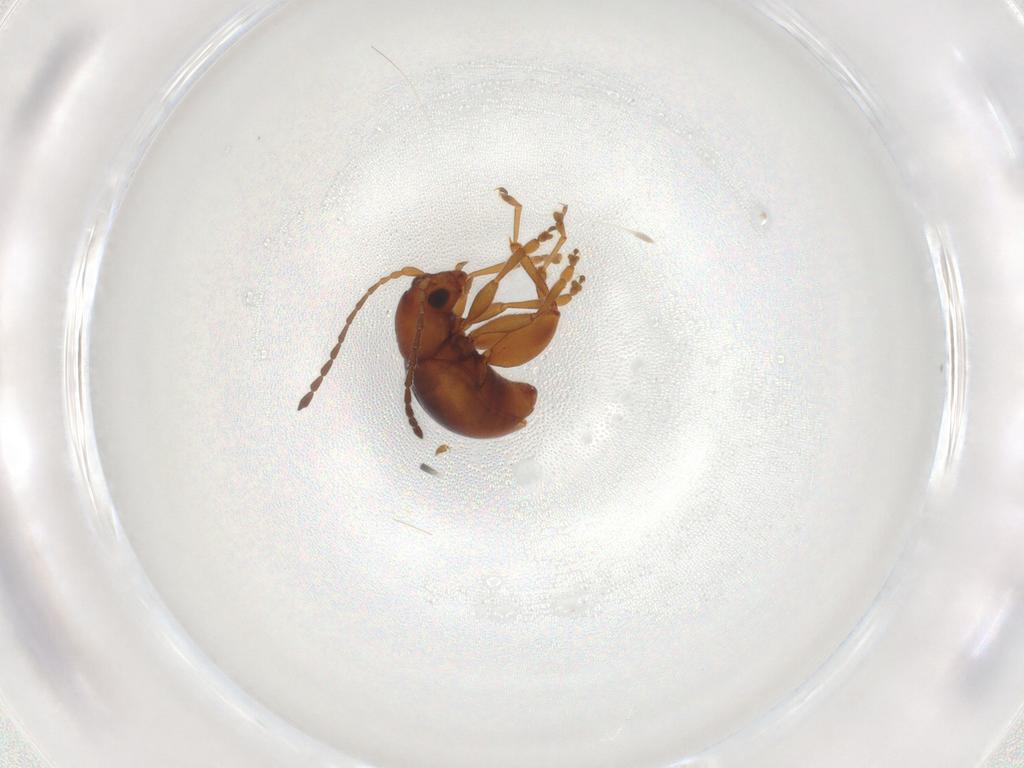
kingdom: Animalia
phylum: Arthropoda
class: Insecta
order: Coleoptera
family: Chrysomelidae
